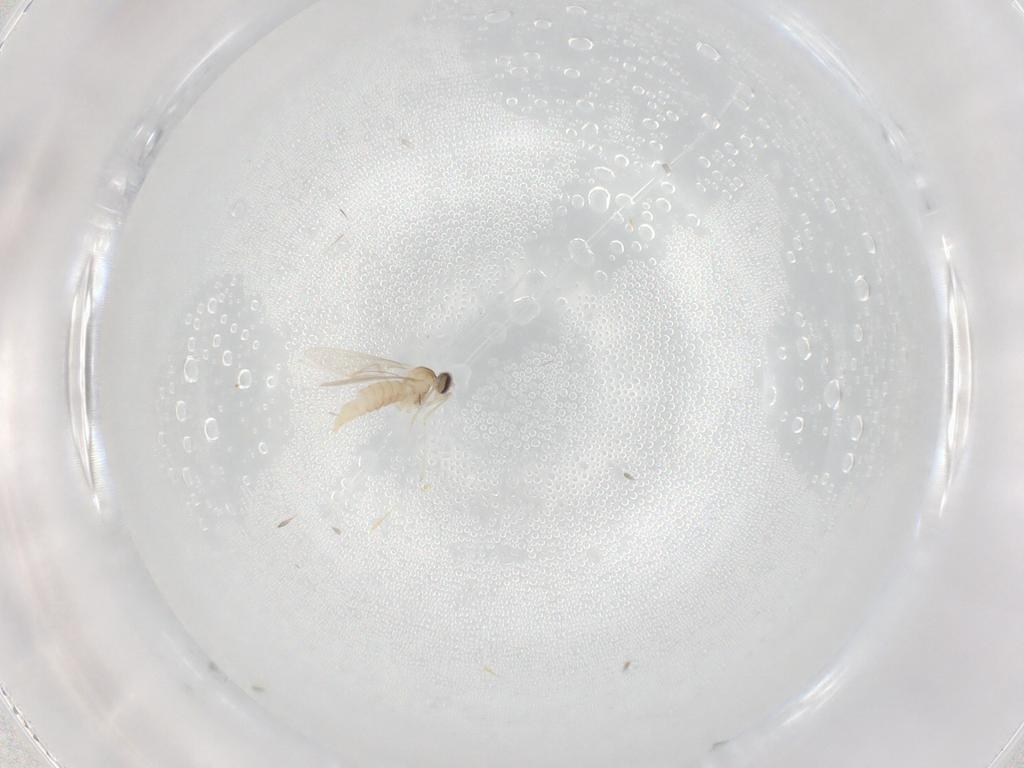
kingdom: Animalia
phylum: Arthropoda
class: Insecta
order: Diptera
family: Cecidomyiidae
